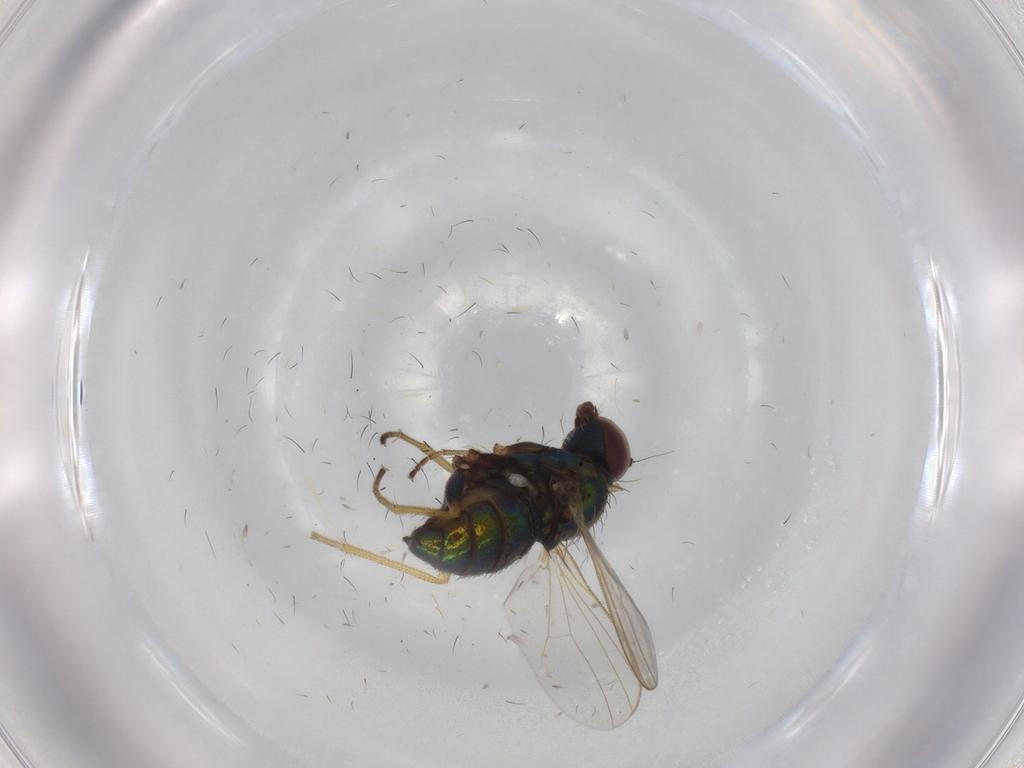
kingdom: Animalia
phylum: Arthropoda
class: Insecta
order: Diptera
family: Dolichopodidae
